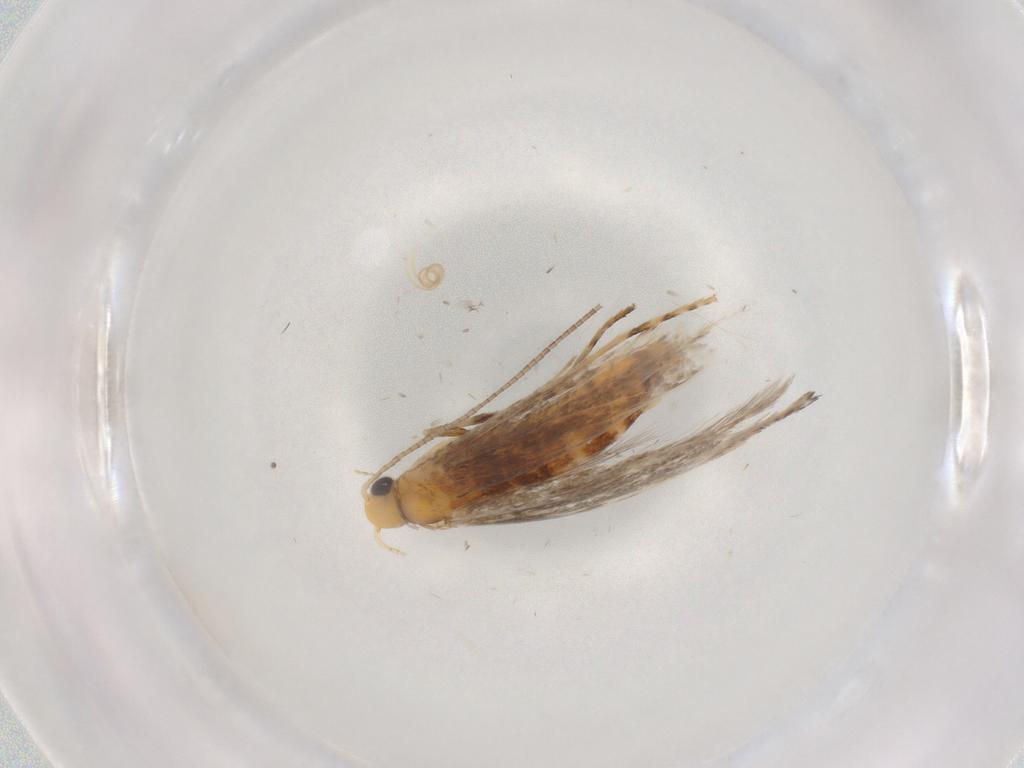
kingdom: Animalia
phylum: Arthropoda
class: Insecta
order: Lepidoptera
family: Gracillariidae
